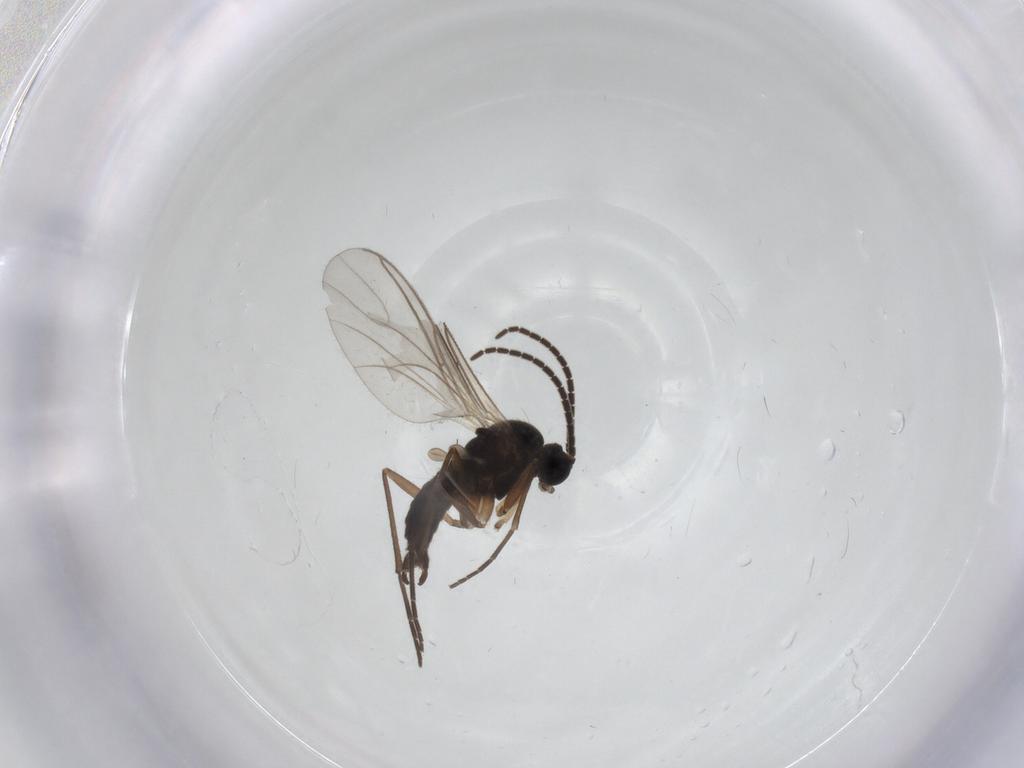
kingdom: Animalia
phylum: Arthropoda
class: Insecta
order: Diptera
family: Sciaridae
